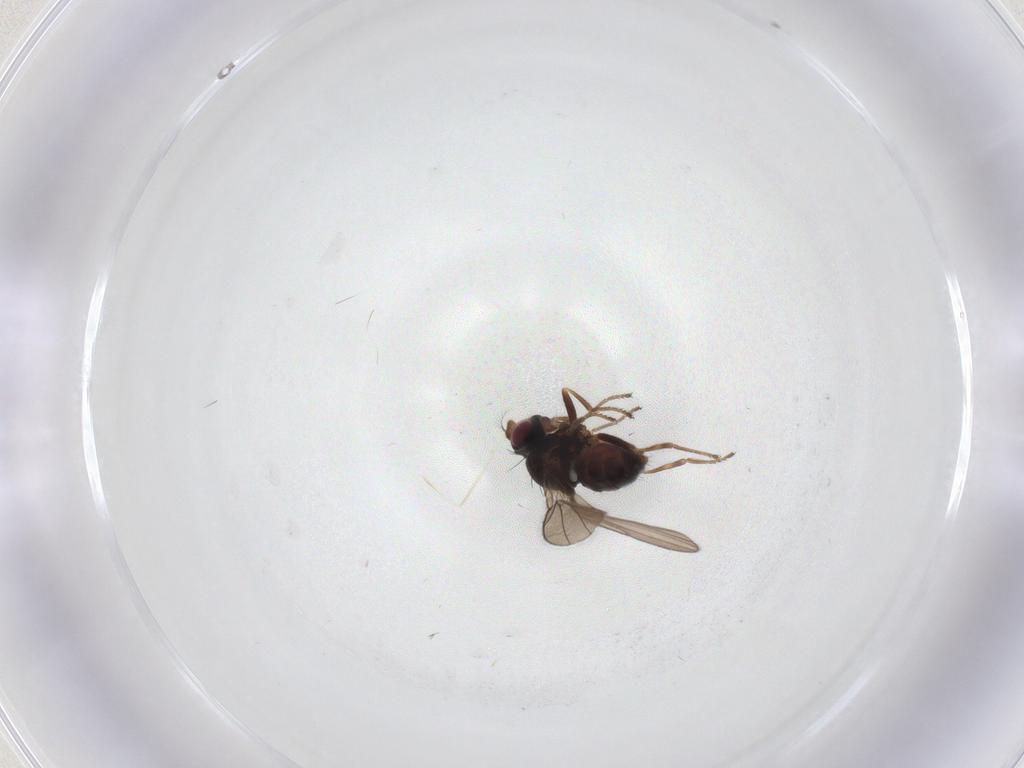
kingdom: Animalia
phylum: Arthropoda
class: Insecta
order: Diptera
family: Ephydridae
